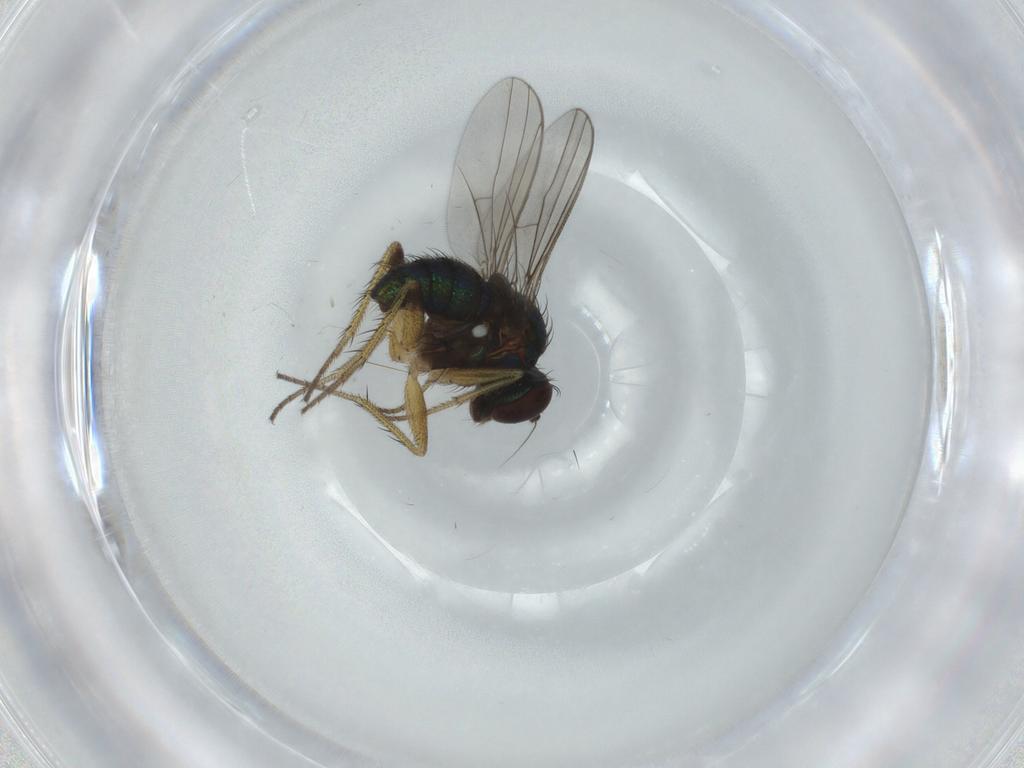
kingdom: Animalia
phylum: Arthropoda
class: Insecta
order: Diptera
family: Dolichopodidae
